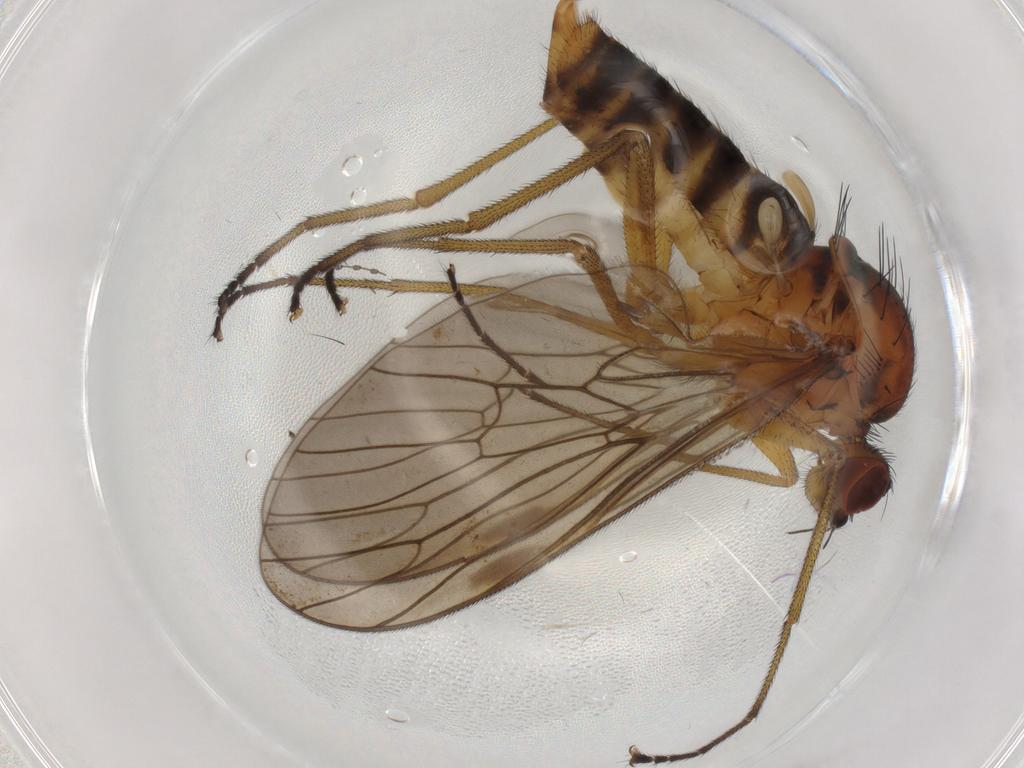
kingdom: Animalia
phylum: Arthropoda
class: Insecta
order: Diptera
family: Brachystomatidae
